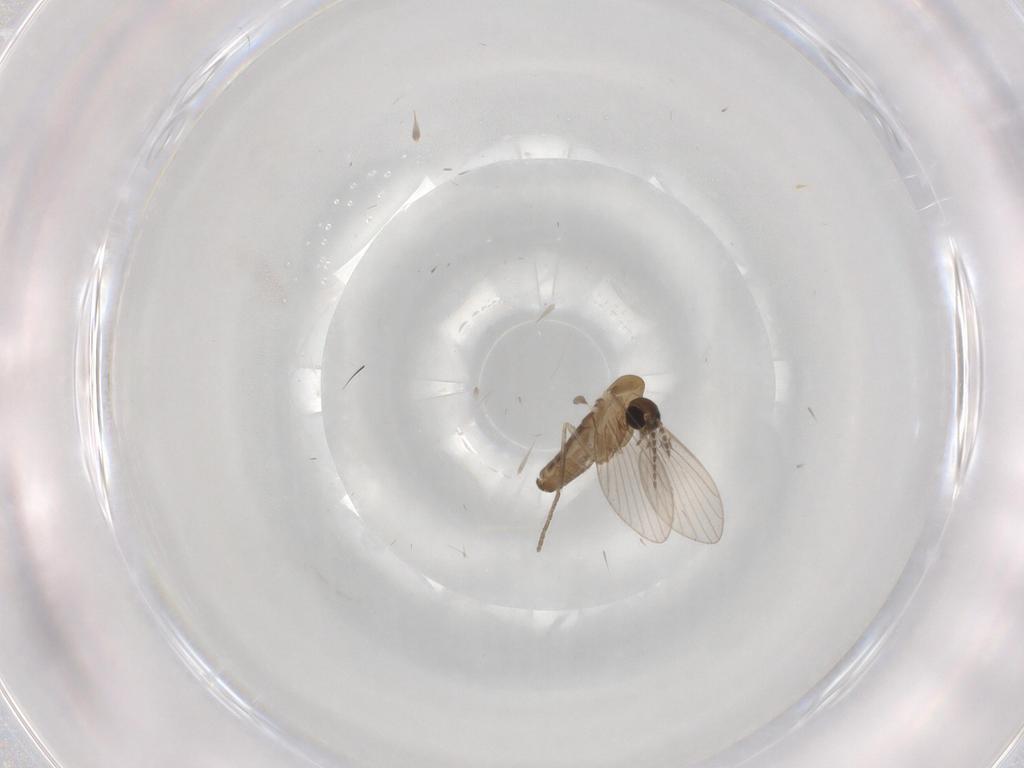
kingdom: Animalia
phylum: Arthropoda
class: Insecta
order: Diptera
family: Psychodidae
